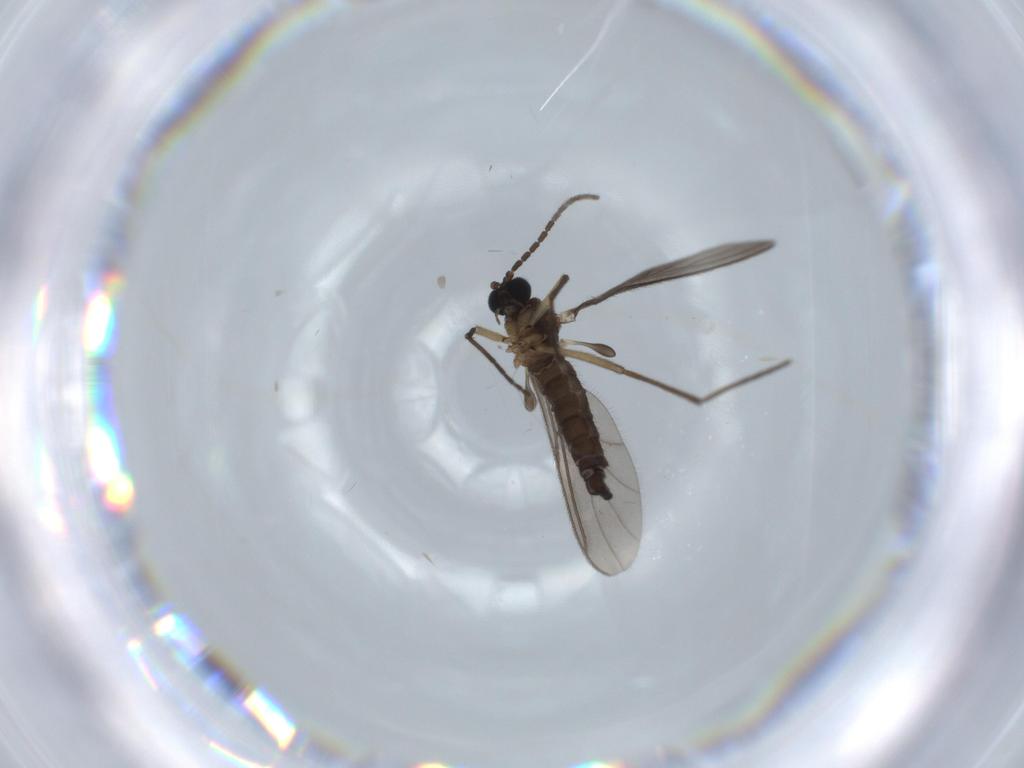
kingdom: Animalia
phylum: Arthropoda
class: Insecta
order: Diptera
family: Sciaridae
